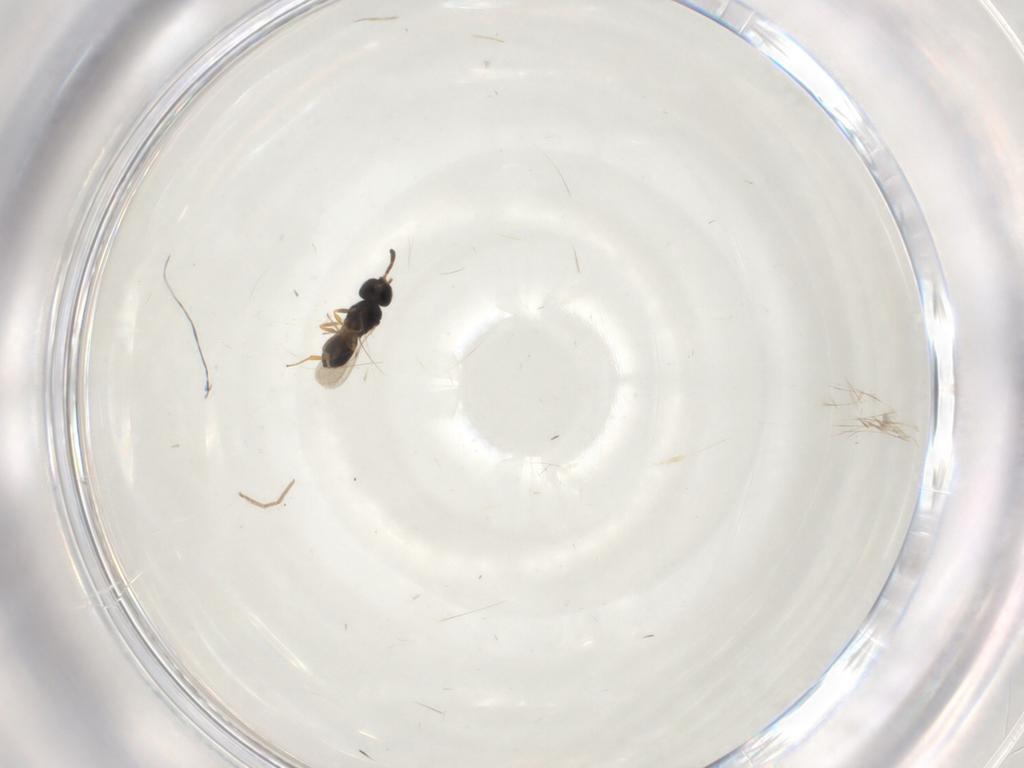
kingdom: Animalia
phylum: Arthropoda
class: Insecta
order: Hymenoptera
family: Scelionidae
